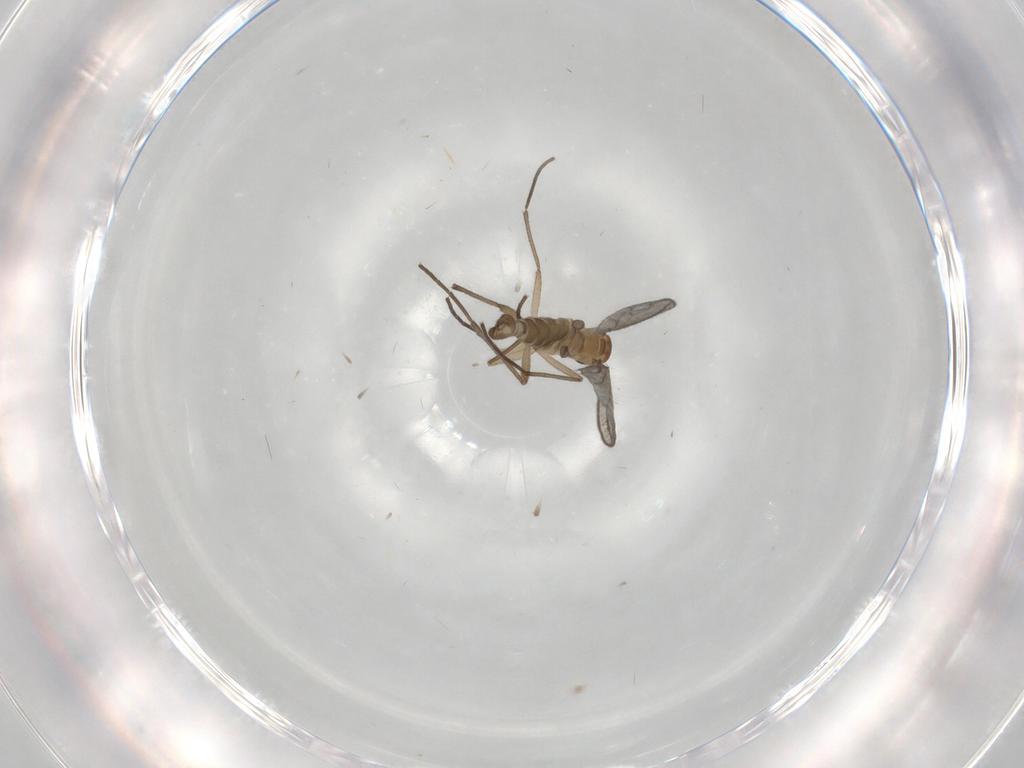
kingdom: Animalia
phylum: Arthropoda
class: Insecta
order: Diptera
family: Sciaridae
